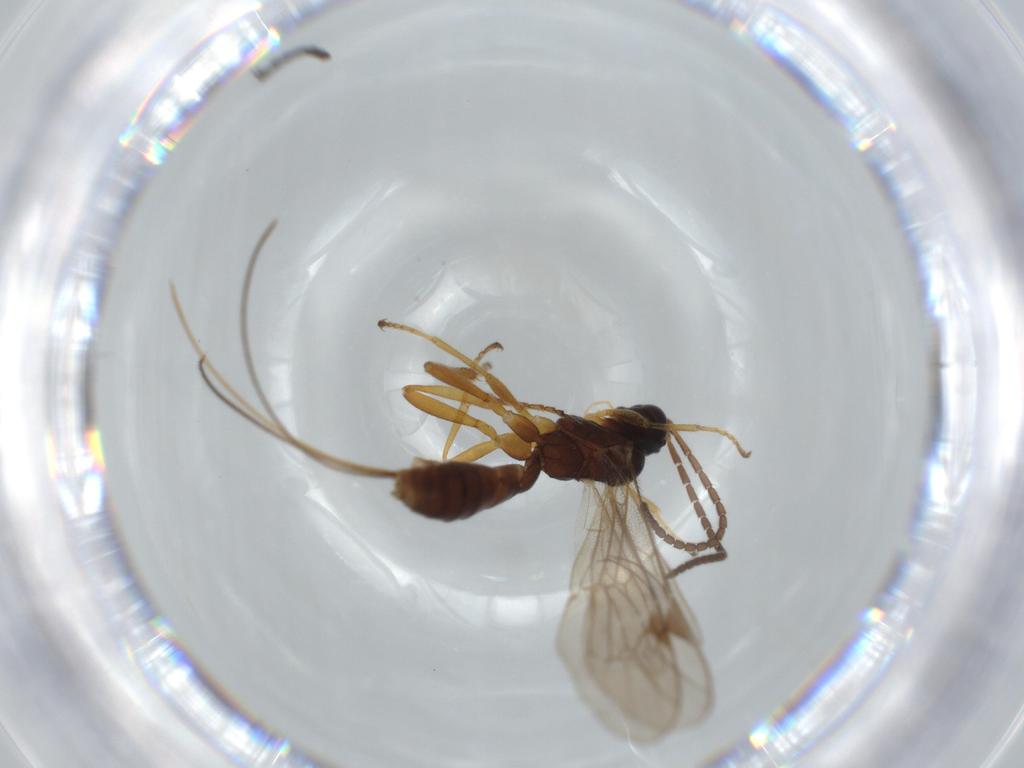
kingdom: Animalia
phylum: Arthropoda
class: Insecta
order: Hymenoptera
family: Ichneumonidae
